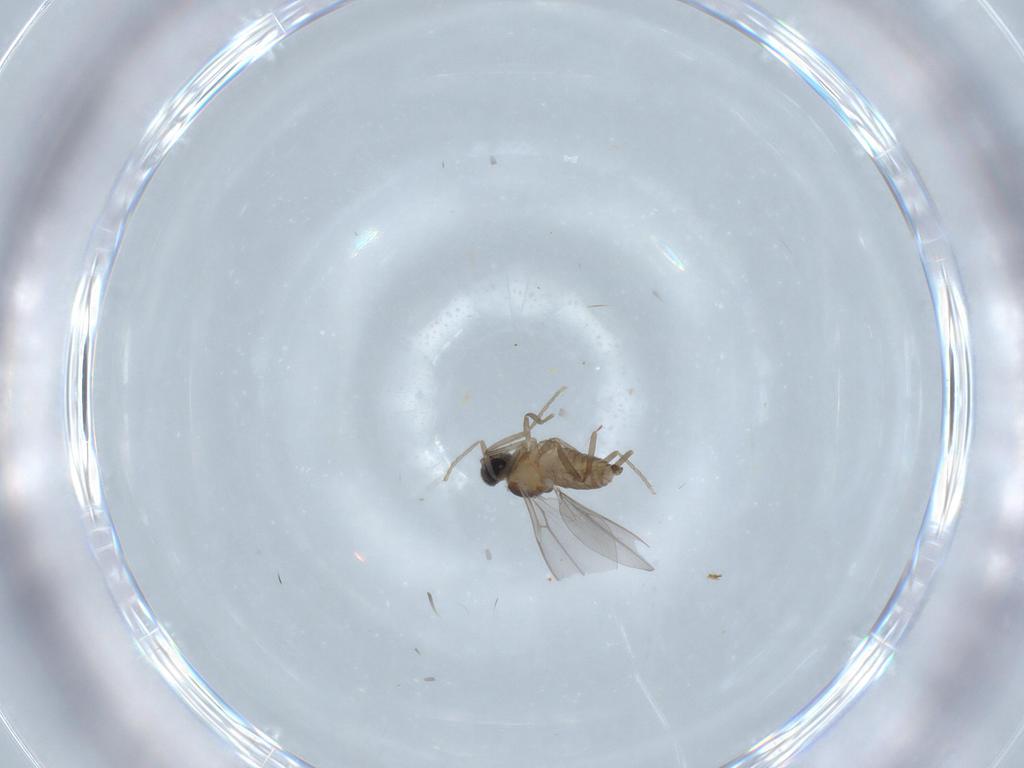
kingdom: Animalia
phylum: Arthropoda
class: Insecta
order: Diptera
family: Cecidomyiidae
